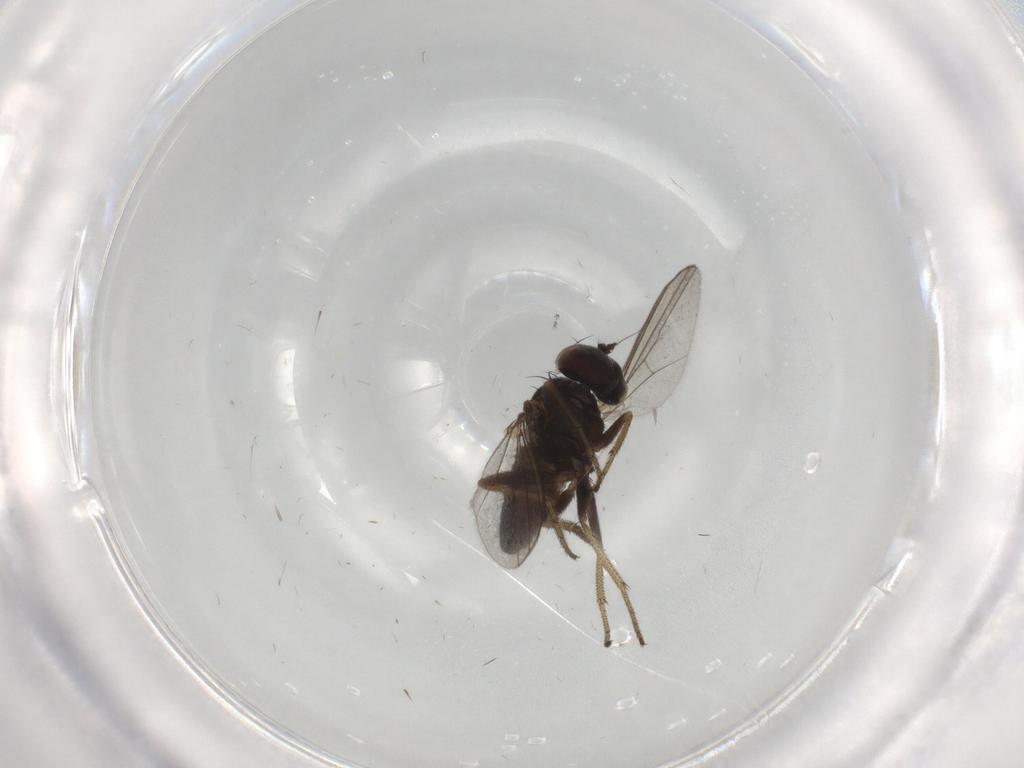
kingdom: Animalia
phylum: Arthropoda
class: Insecta
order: Diptera
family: Dolichopodidae
